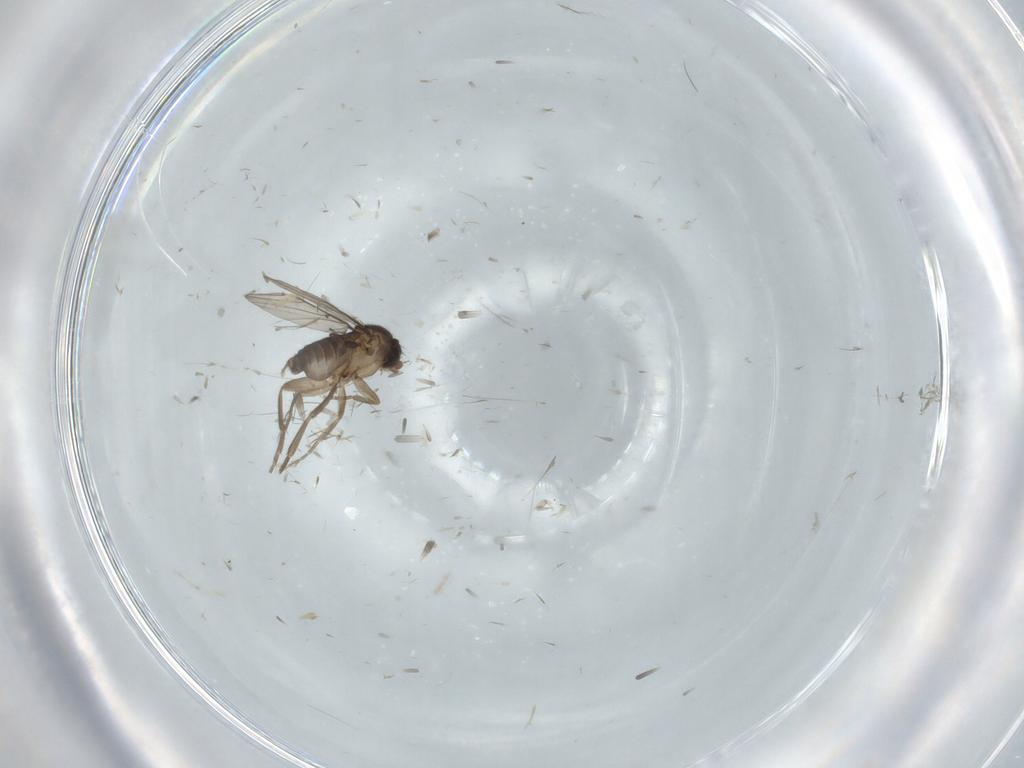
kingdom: Animalia
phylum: Arthropoda
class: Insecta
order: Diptera
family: Phoridae
